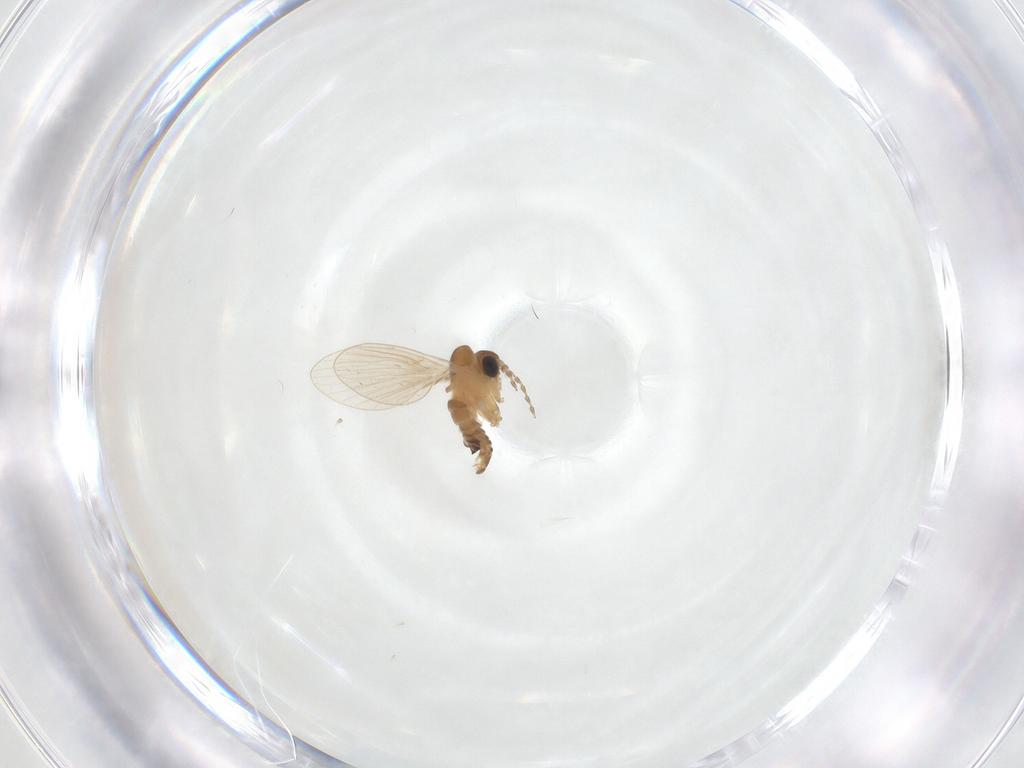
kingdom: Animalia
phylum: Arthropoda
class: Insecta
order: Diptera
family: Psychodidae
